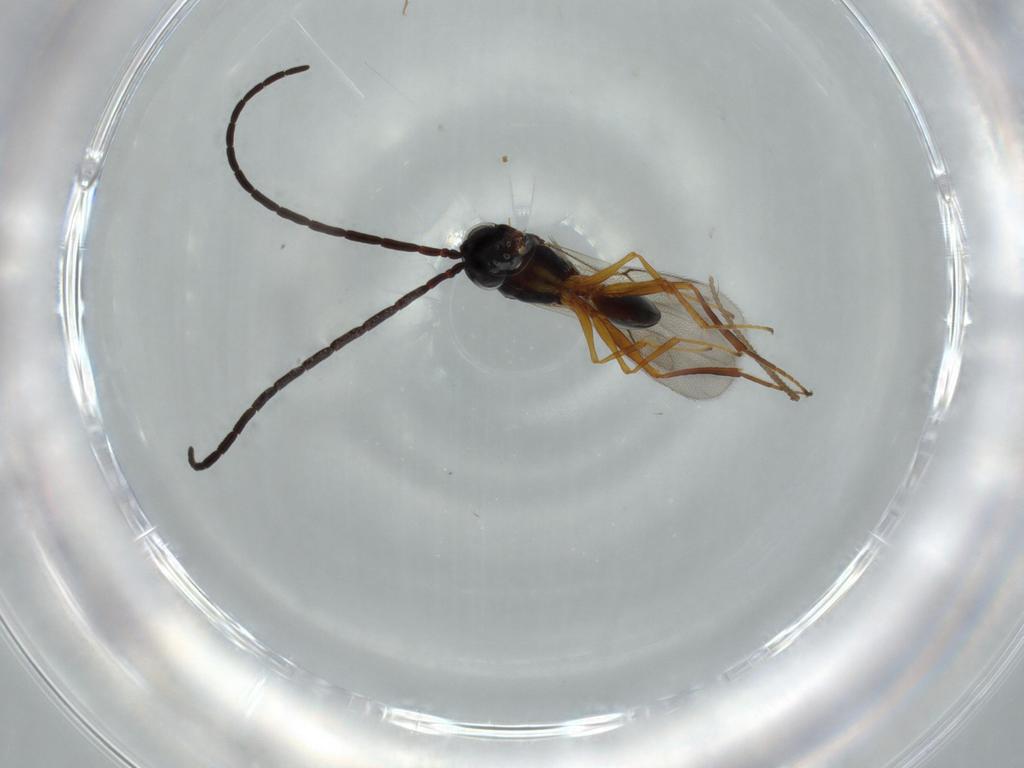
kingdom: Animalia
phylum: Arthropoda
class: Insecta
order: Hymenoptera
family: Figitidae
